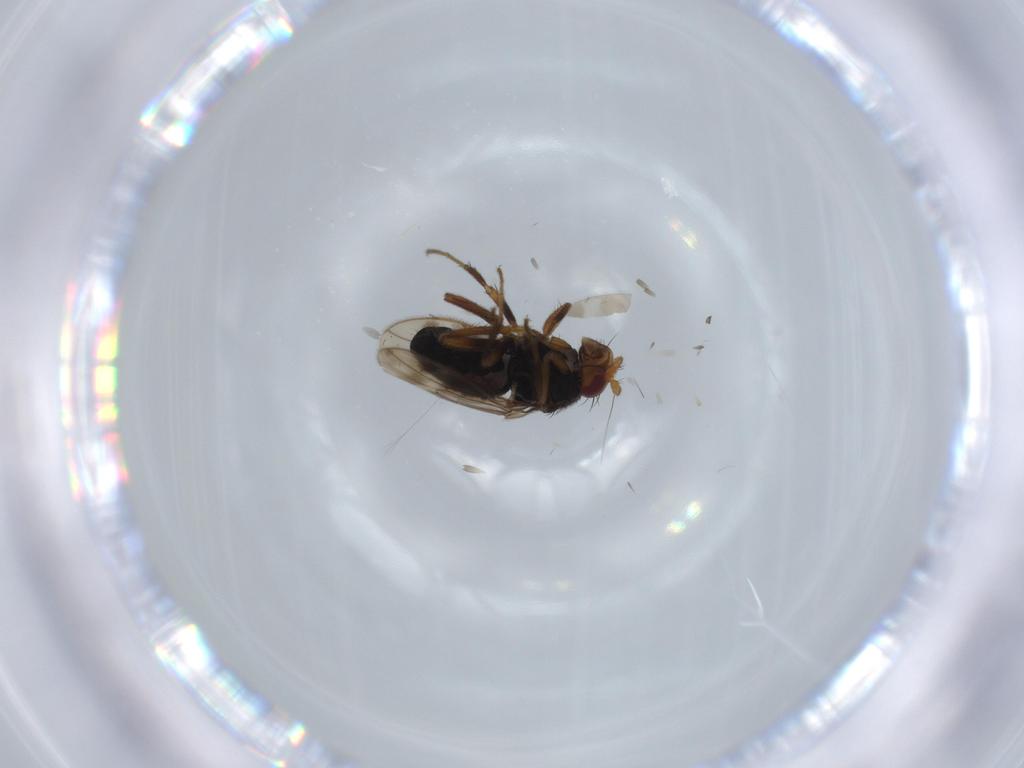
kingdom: Animalia
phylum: Arthropoda
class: Insecta
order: Diptera
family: Sphaeroceridae
